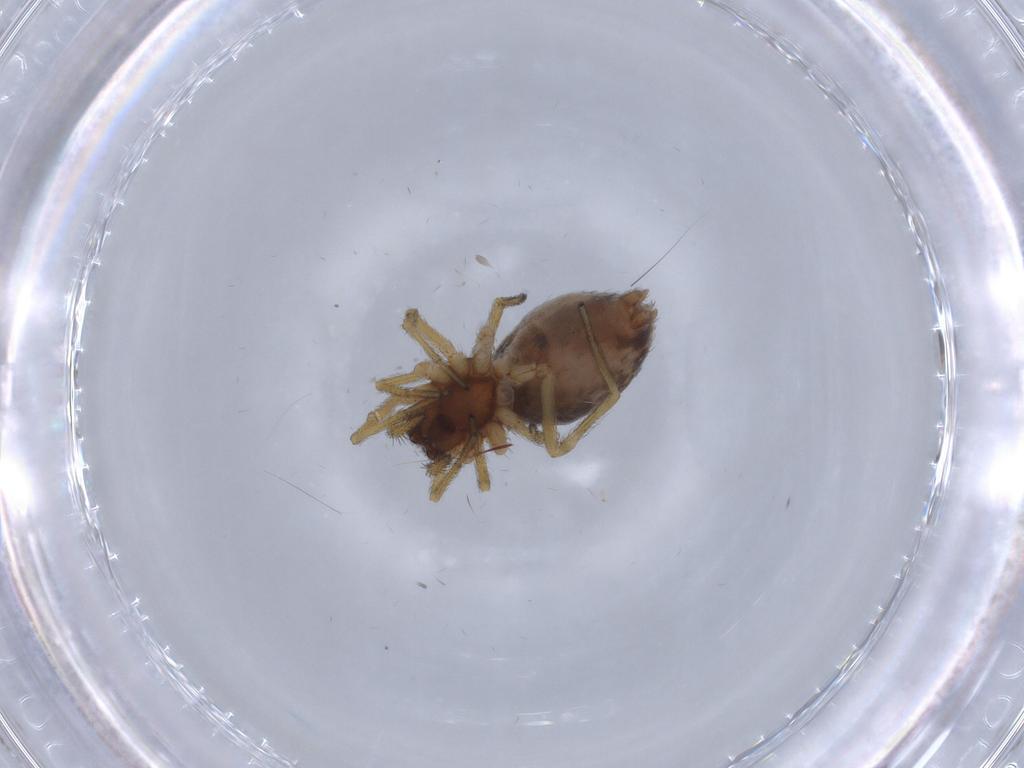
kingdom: Animalia
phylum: Arthropoda
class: Arachnida
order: Araneae
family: Dictynidae
